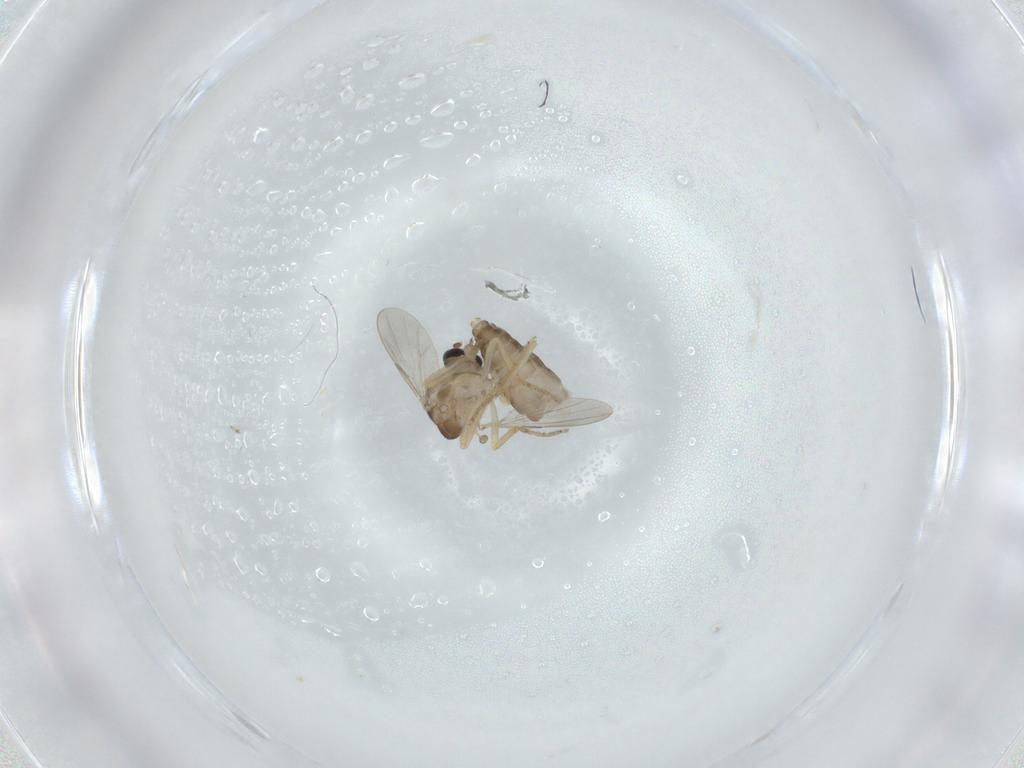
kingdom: Animalia
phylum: Arthropoda
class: Insecta
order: Diptera
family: Ceratopogonidae
